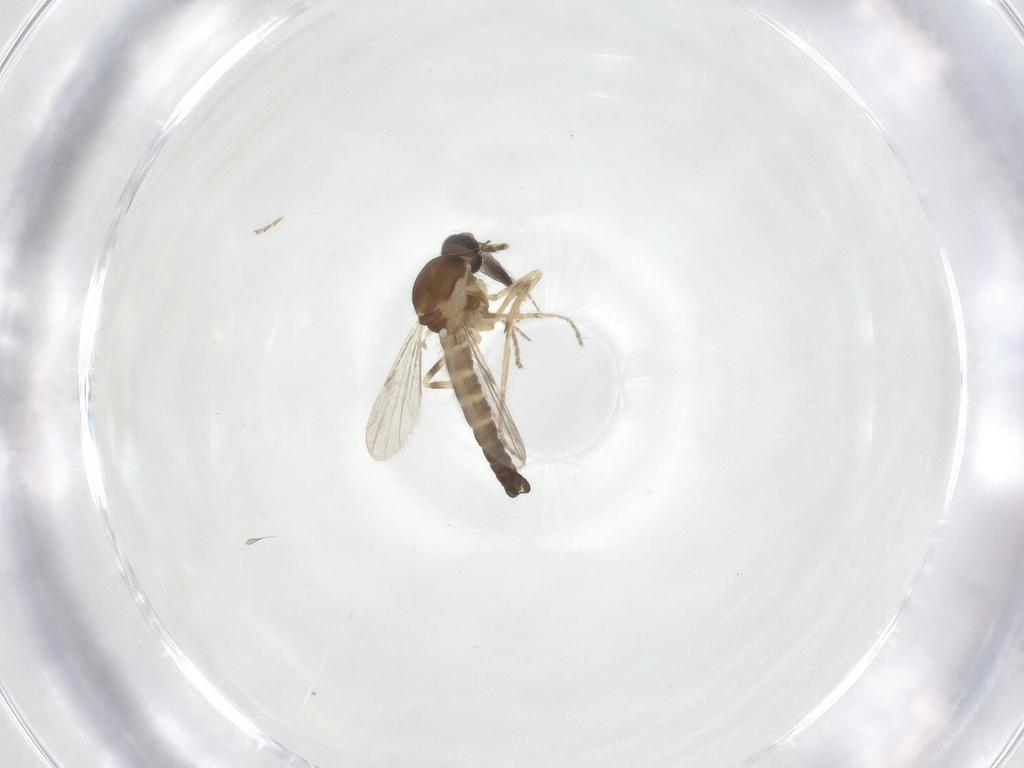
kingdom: Animalia
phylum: Arthropoda
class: Insecta
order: Diptera
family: Ceratopogonidae
